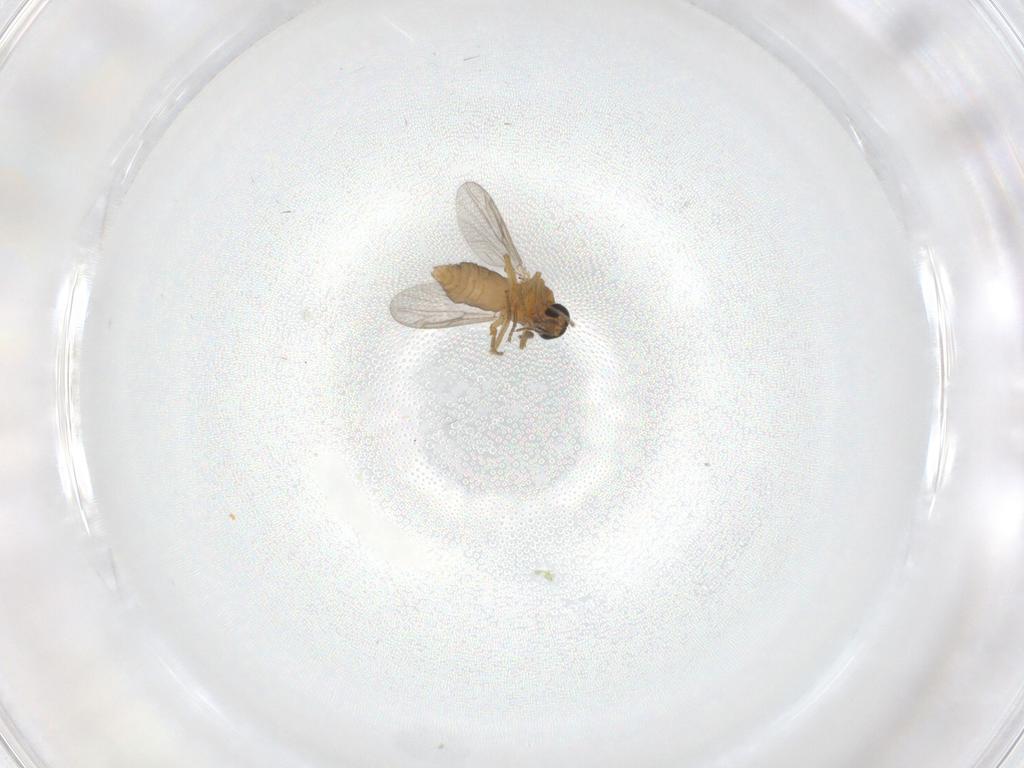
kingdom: Animalia
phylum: Arthropoda
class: Insecta
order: Diptera
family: Ceratopogonidae
